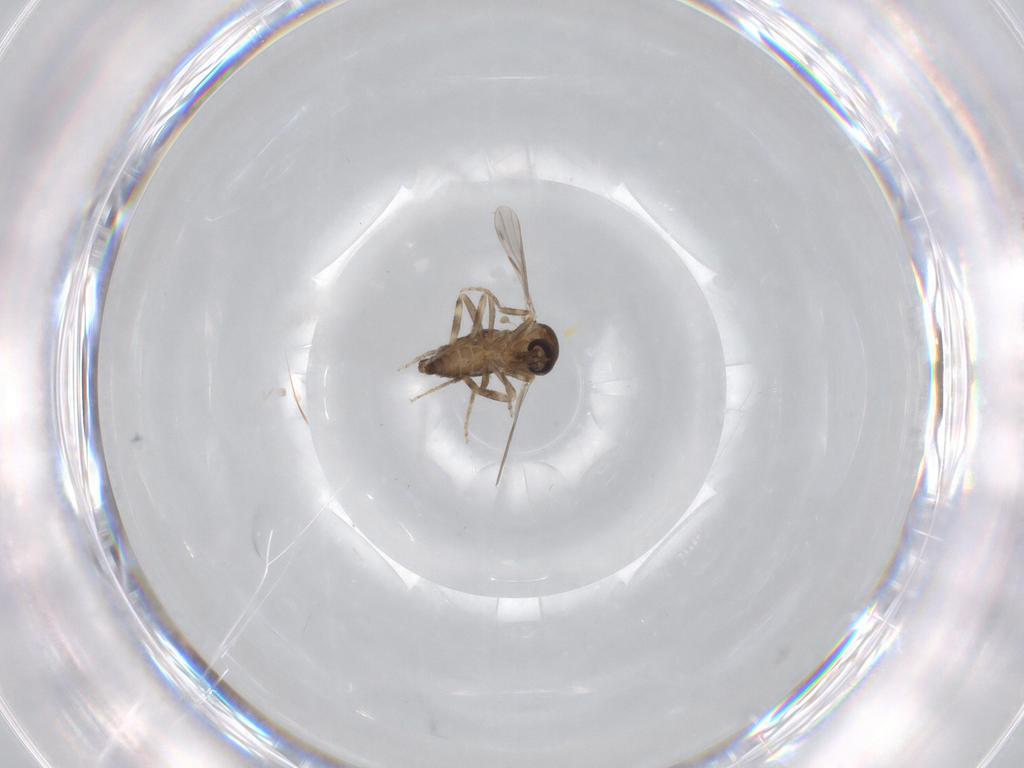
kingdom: Animalia
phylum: Arthropoda
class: Insecta
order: Diptera
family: Ceratopogonidae
